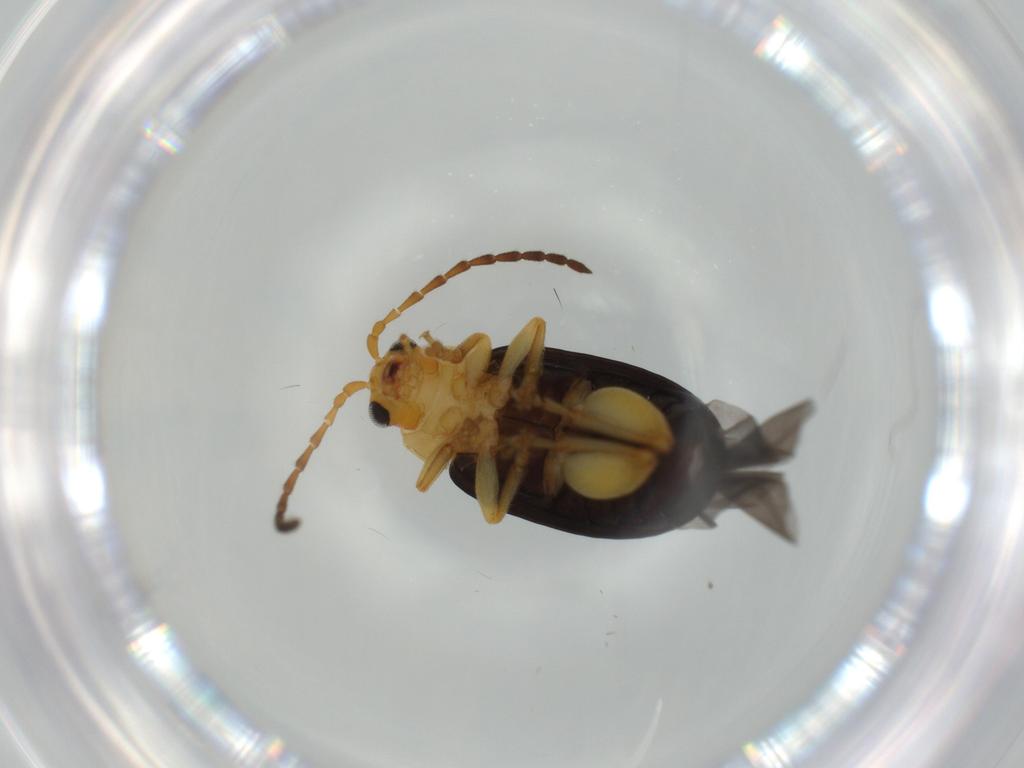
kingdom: Animalia
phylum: Arthropoda
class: Insecta
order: Coleoptera
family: Chrysomelidae
